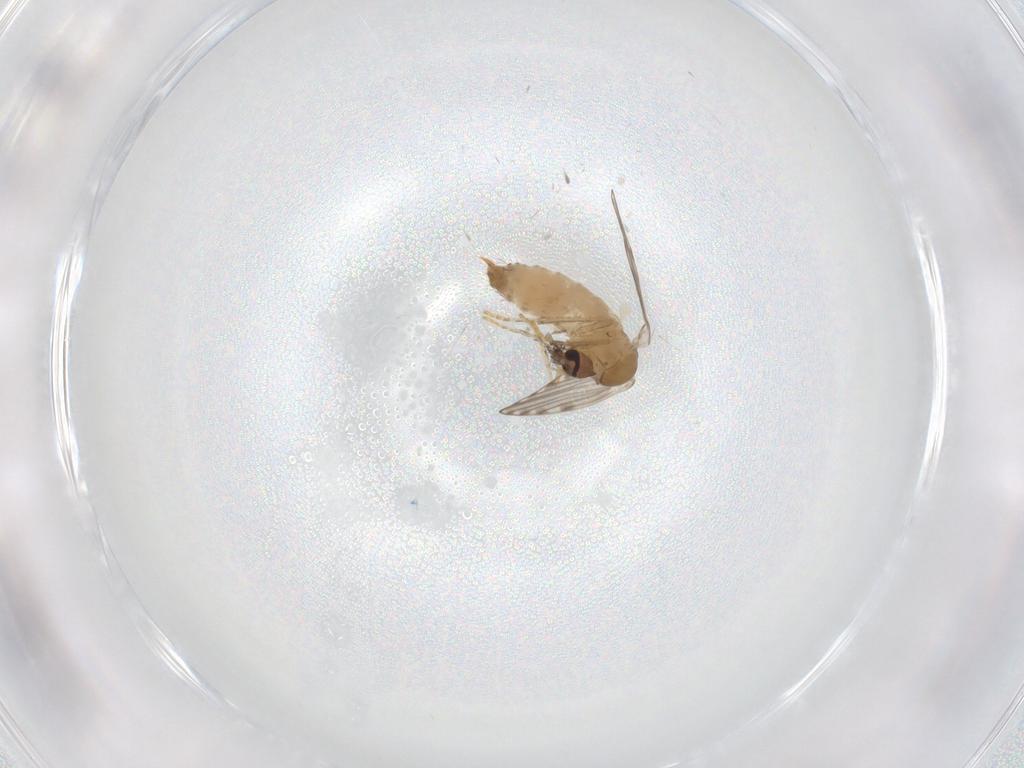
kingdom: Animalia
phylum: Arthropoda
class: Insecta
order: Diptera
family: Psychodidae
